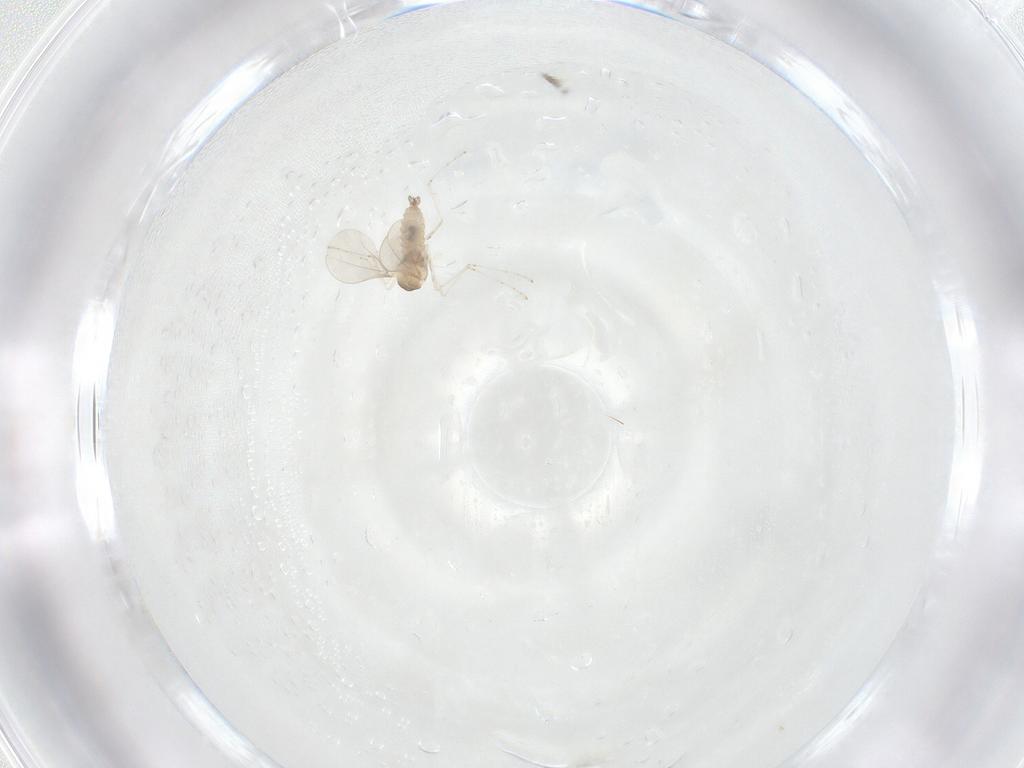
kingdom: Animalia
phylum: Arthropoda
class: Insecta
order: Diptera
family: Cecidomyiidae
